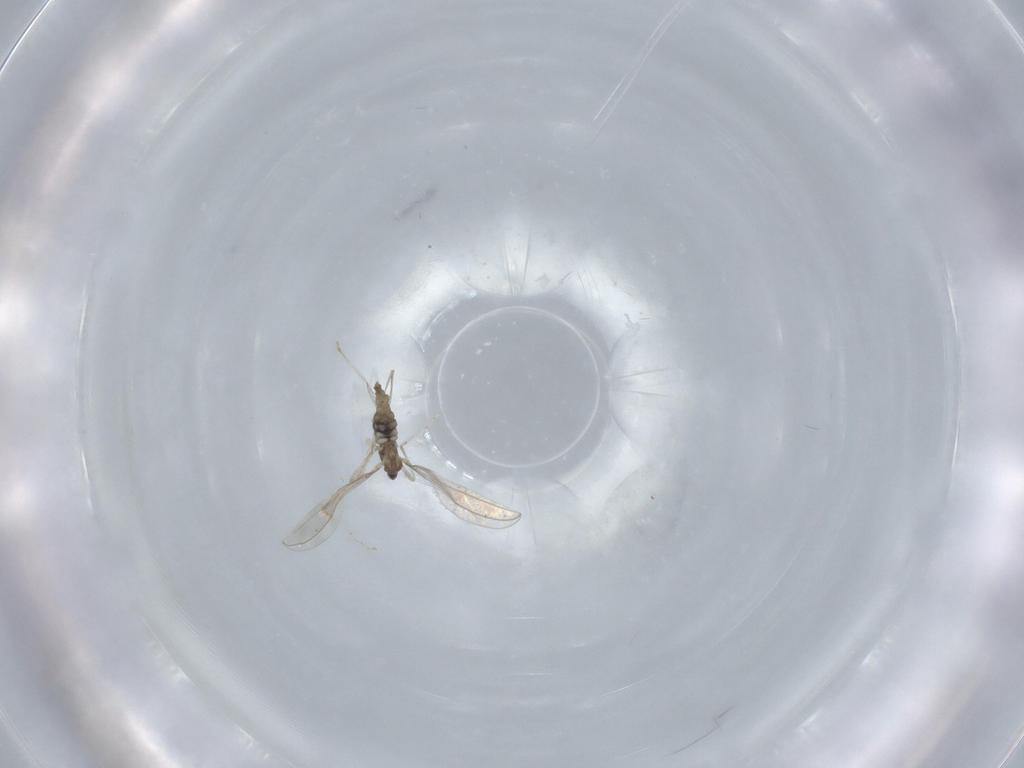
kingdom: Animalia
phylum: Arthropoda
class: Insecta
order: Diptera
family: Cecidomyiidae
